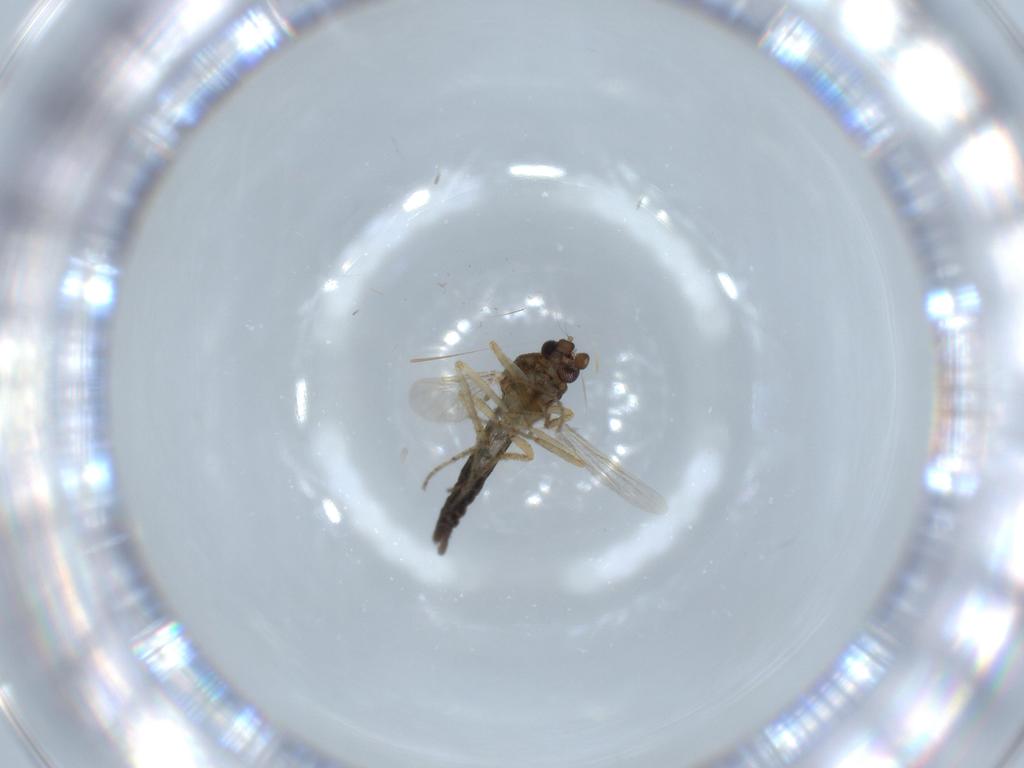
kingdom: Animalia
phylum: Arthropoda
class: Insecta
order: Diptera
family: Ceratopogonidae
